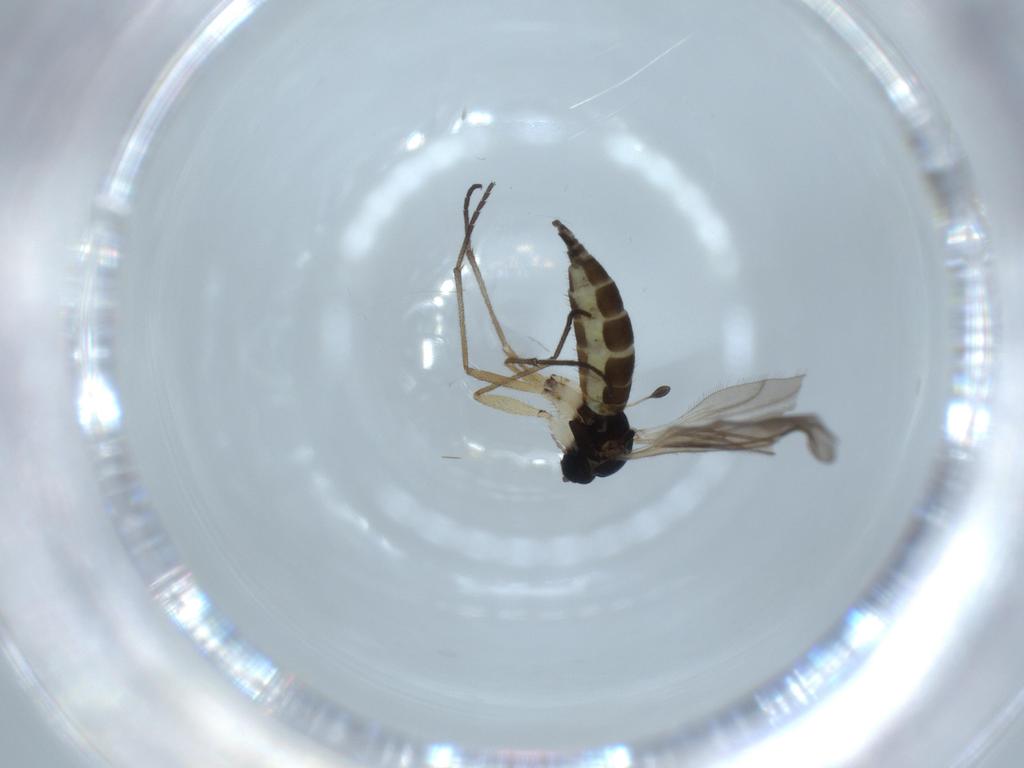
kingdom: Animalia
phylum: Arthropoda
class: Insecta
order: Diptera
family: Sciaridae
